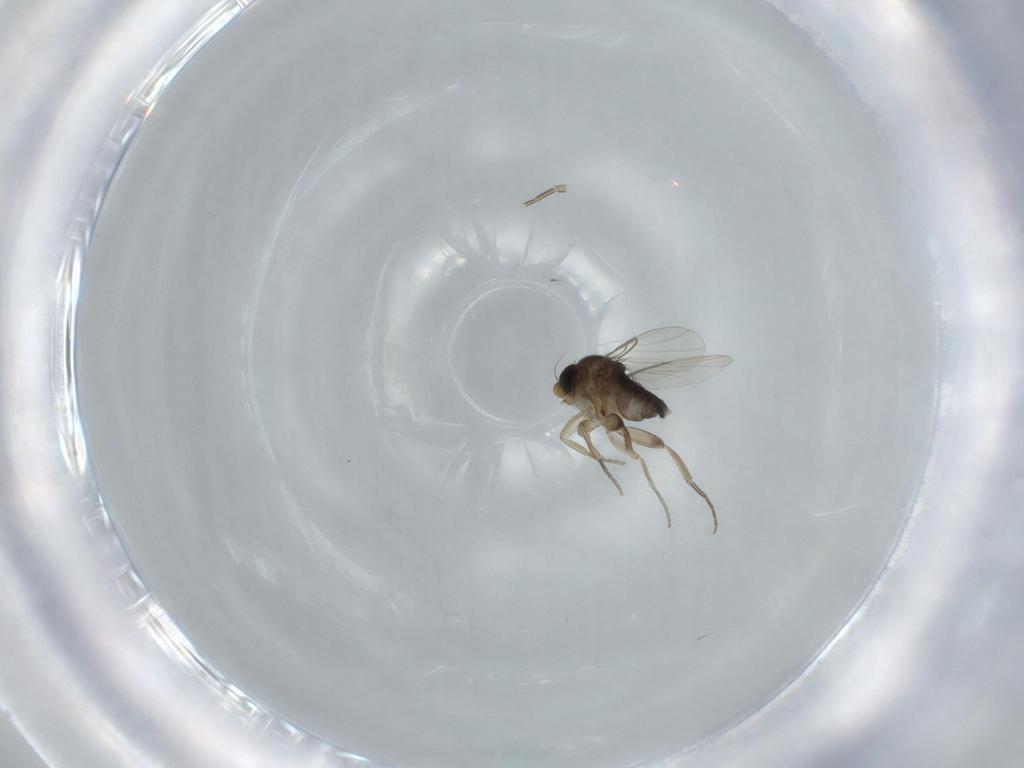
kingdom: Animalia
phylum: Arthropoda
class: Insecta
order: Diptera
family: Phoridae
